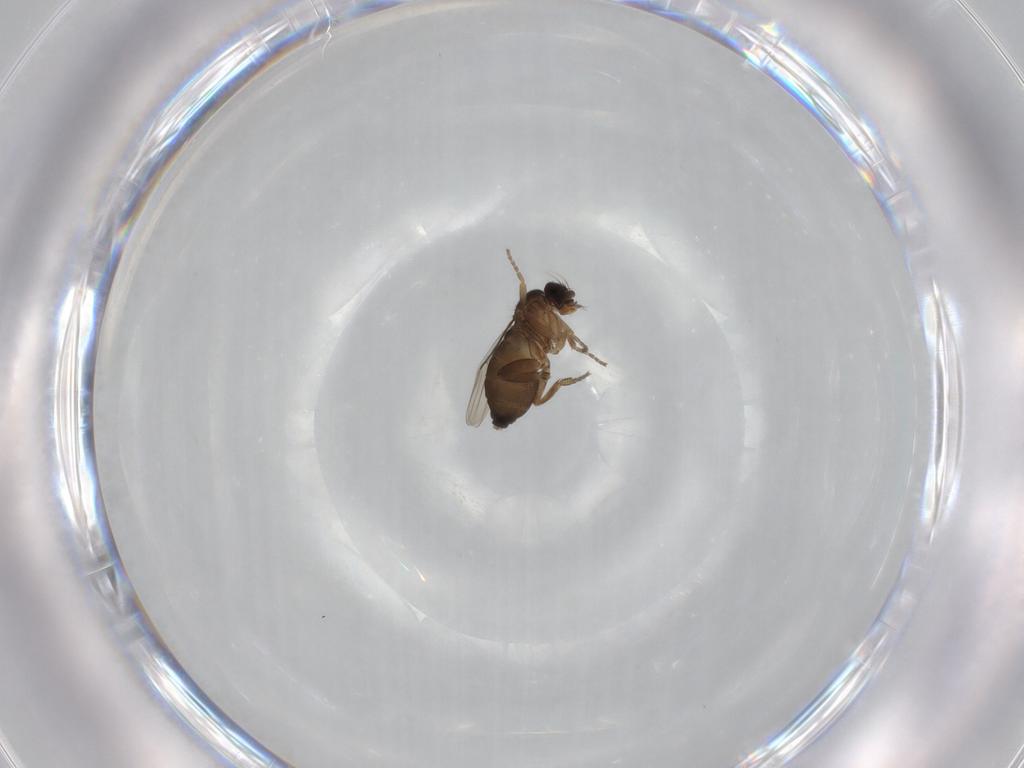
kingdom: Animalia
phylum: Arthropoda
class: Insecta
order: Diptera
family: Phoridae
